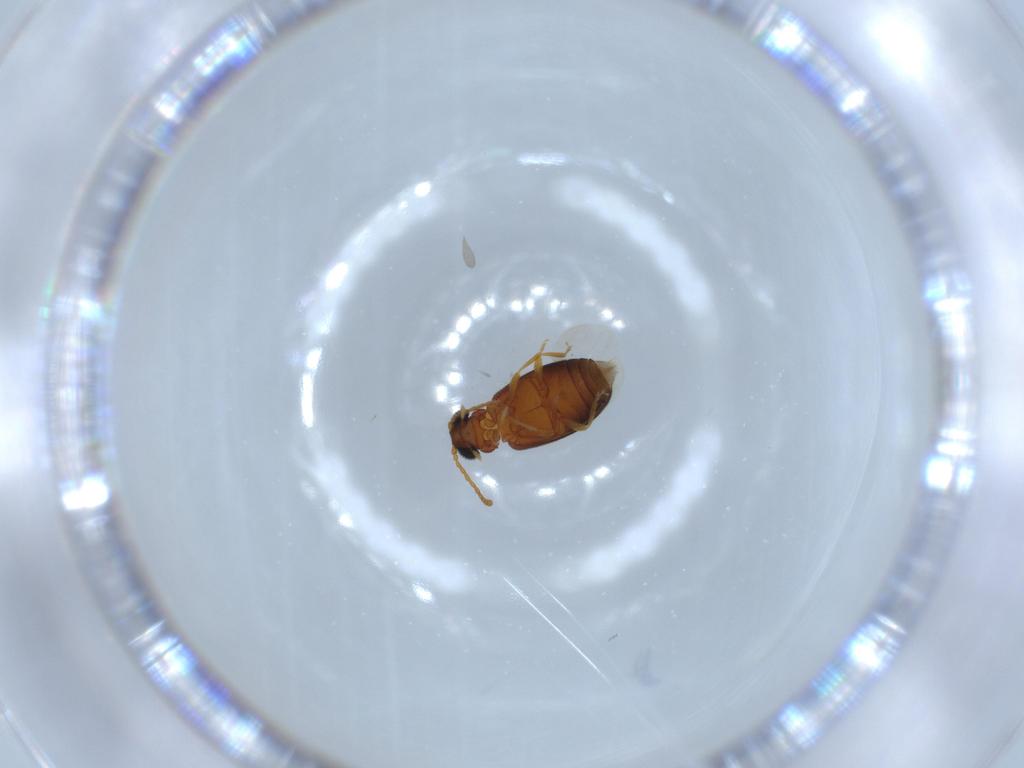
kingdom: Animalia
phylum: Arthropoda
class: Insecta
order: Coleoptera
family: Aderidae
